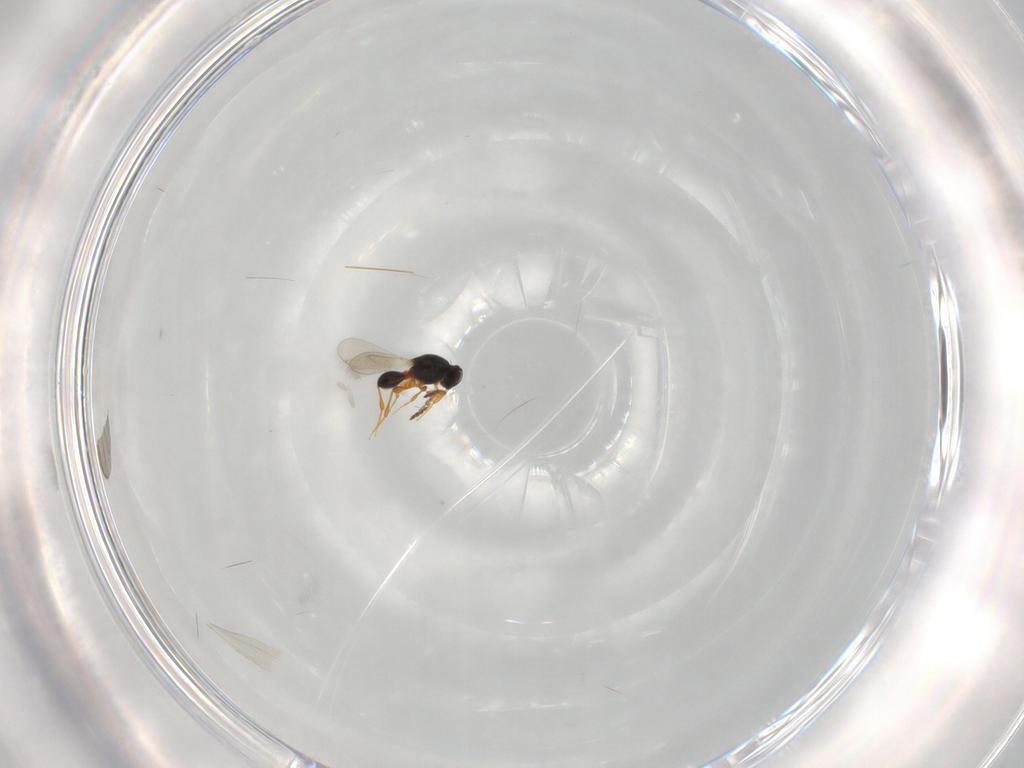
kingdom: Animalia
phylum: Arthropoda
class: Insecta
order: Hymenoptera
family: Platygastridae
